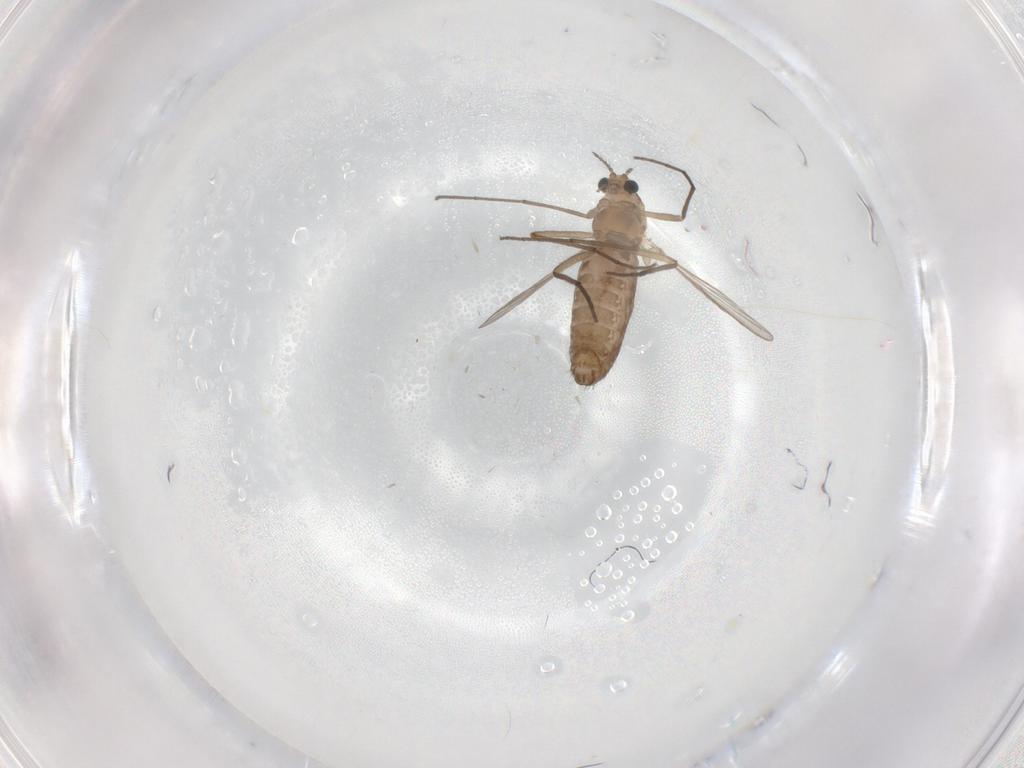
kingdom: Animalia
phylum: Arthropoda
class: Insecta
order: Diptera
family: Chironomidae
